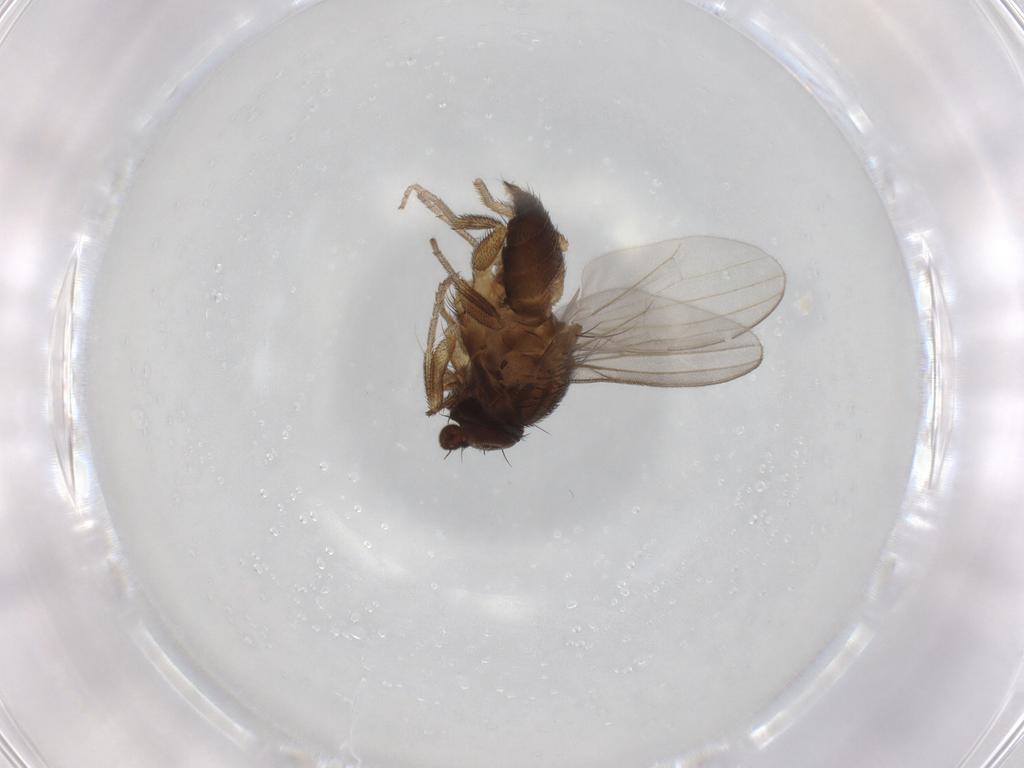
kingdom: Animalia
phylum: Arthropoda
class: Insecta
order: Diptera
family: Milichiidae
